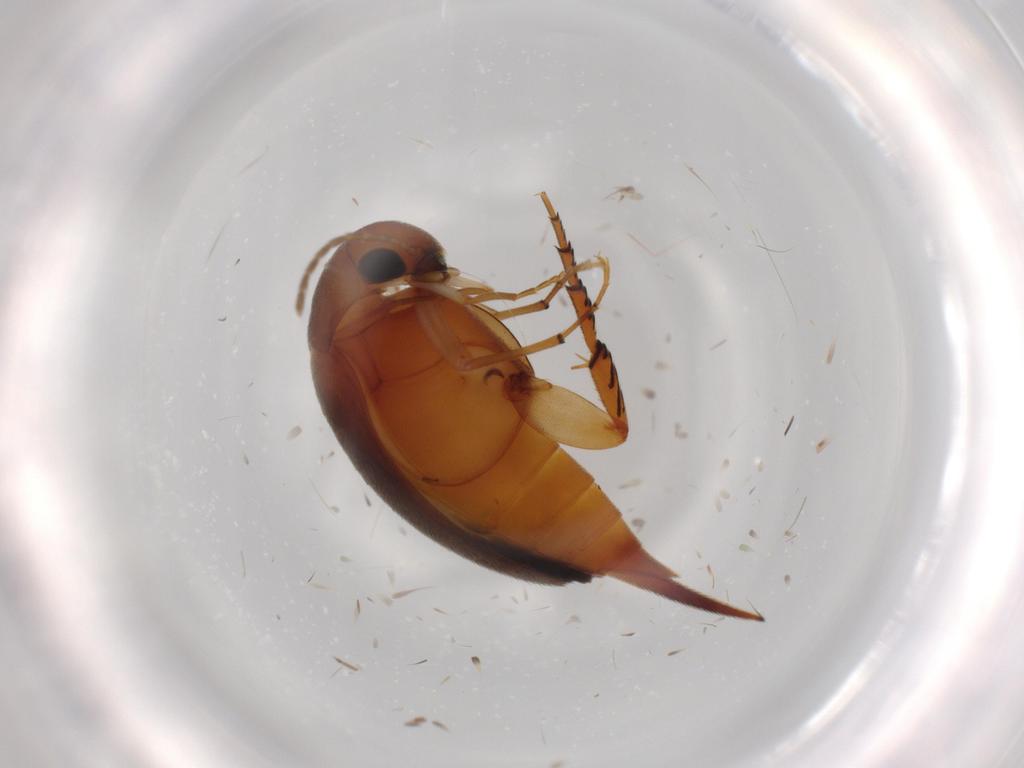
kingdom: Animalia
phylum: Arthropoda
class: Insecta
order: Coleoptera
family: Mordellidae
